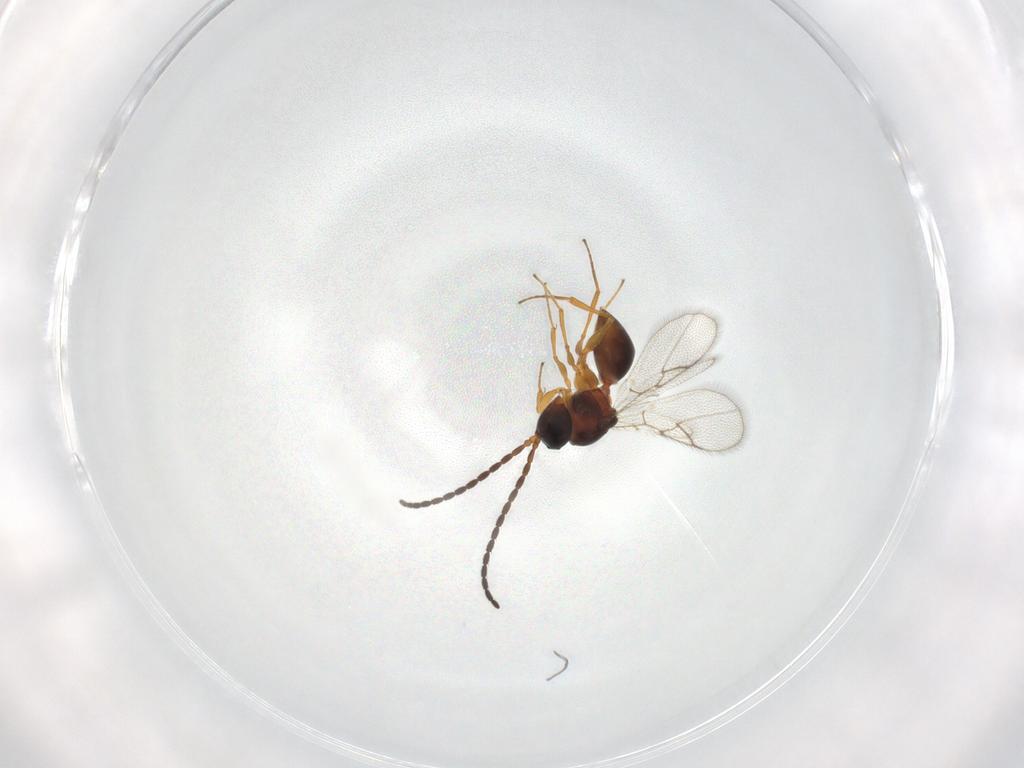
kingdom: Animalia
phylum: Arthropoda
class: Insecta
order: Hymenoptera
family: Figitidae
